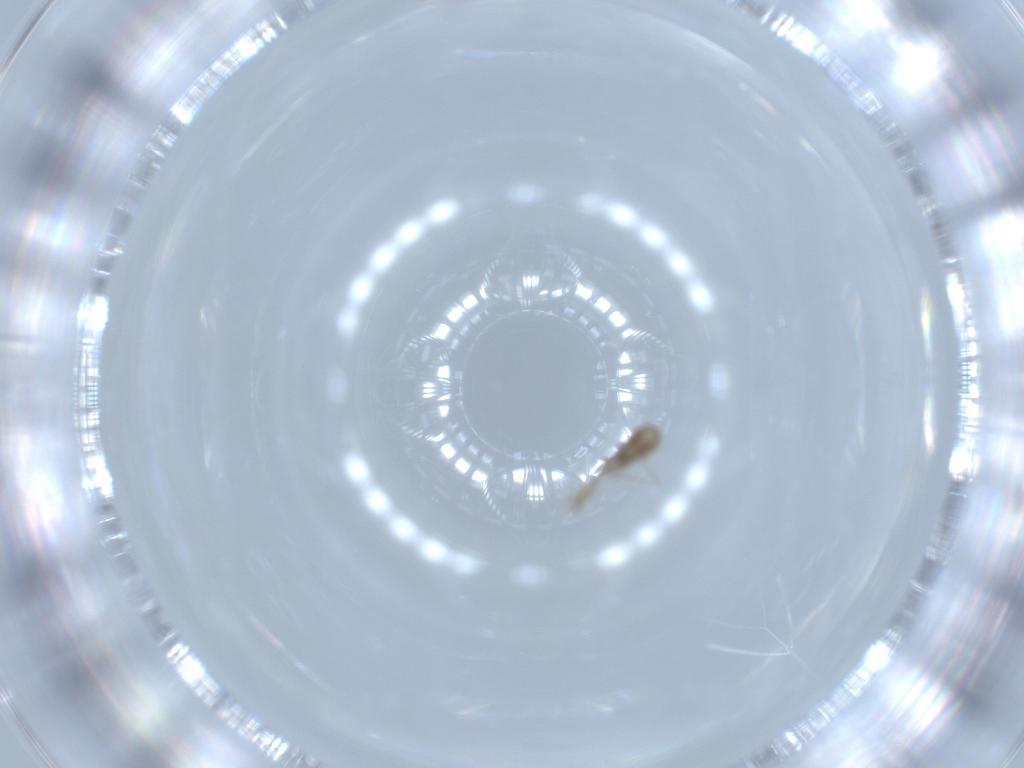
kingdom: Animalia
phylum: Arthropoda
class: Insecta
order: Diptera
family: Cecidomyiidae
